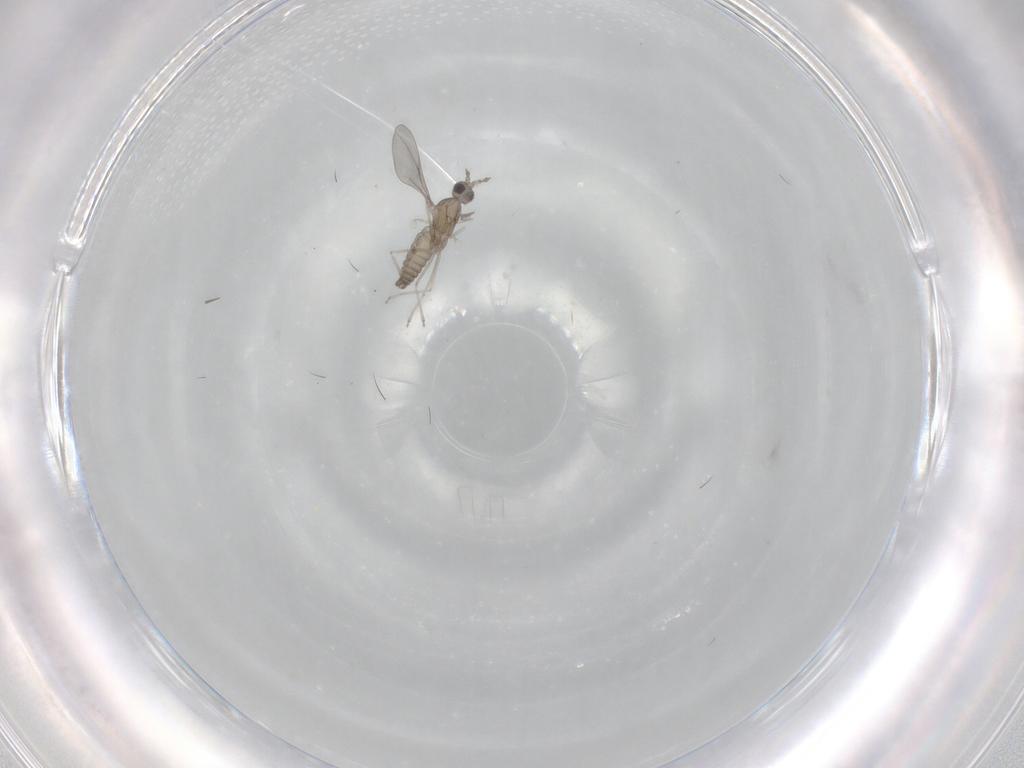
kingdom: Animalia
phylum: Arthropoda
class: Insecta
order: Diptera
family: Cecidomyiidae
